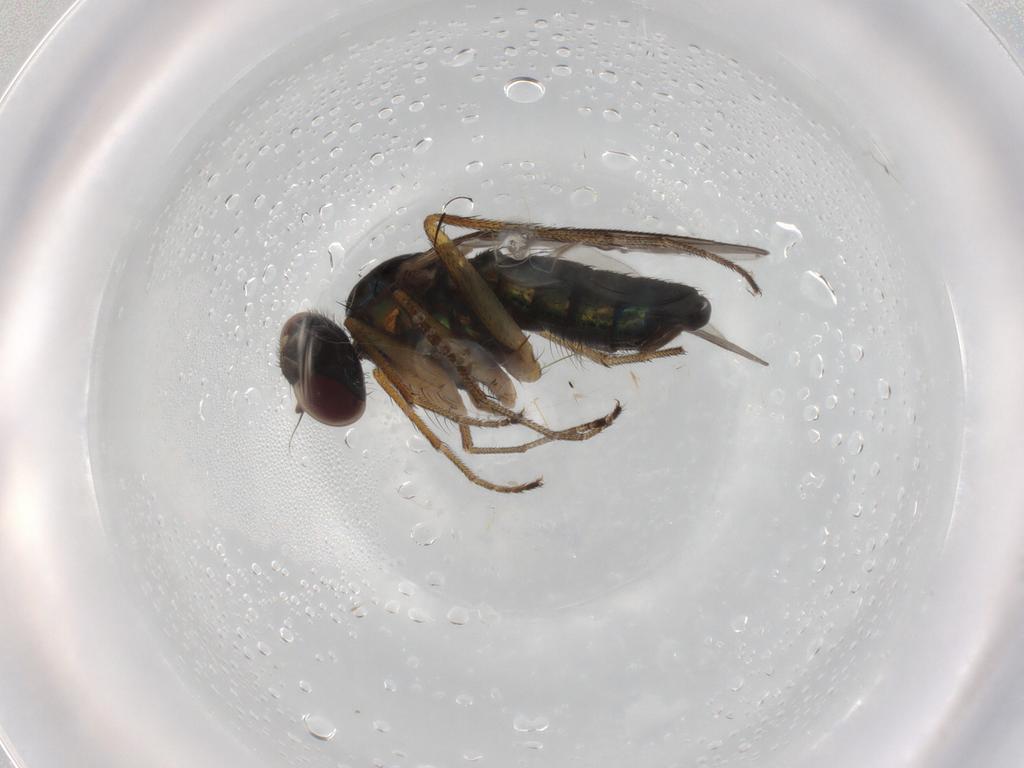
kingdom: Animalia
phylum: Arthropoda
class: Insecta
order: Diptera
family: Dolichopodidae
